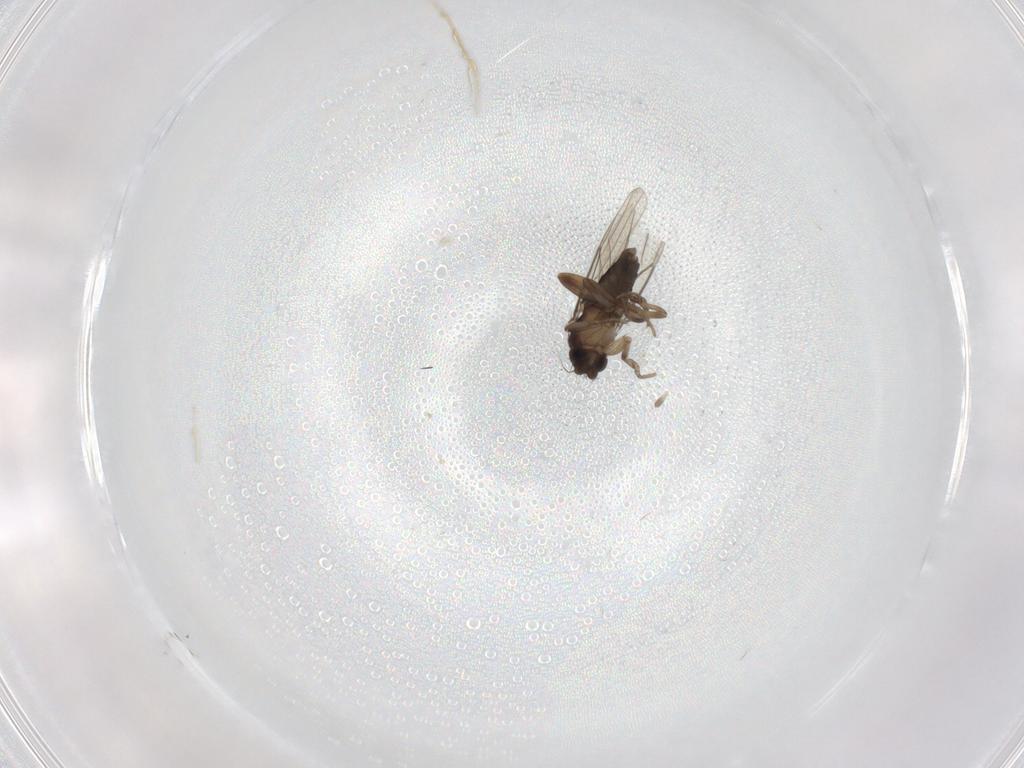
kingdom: Animalia
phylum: Arthropoda
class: Insecta
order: Diptera
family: Phoridae
